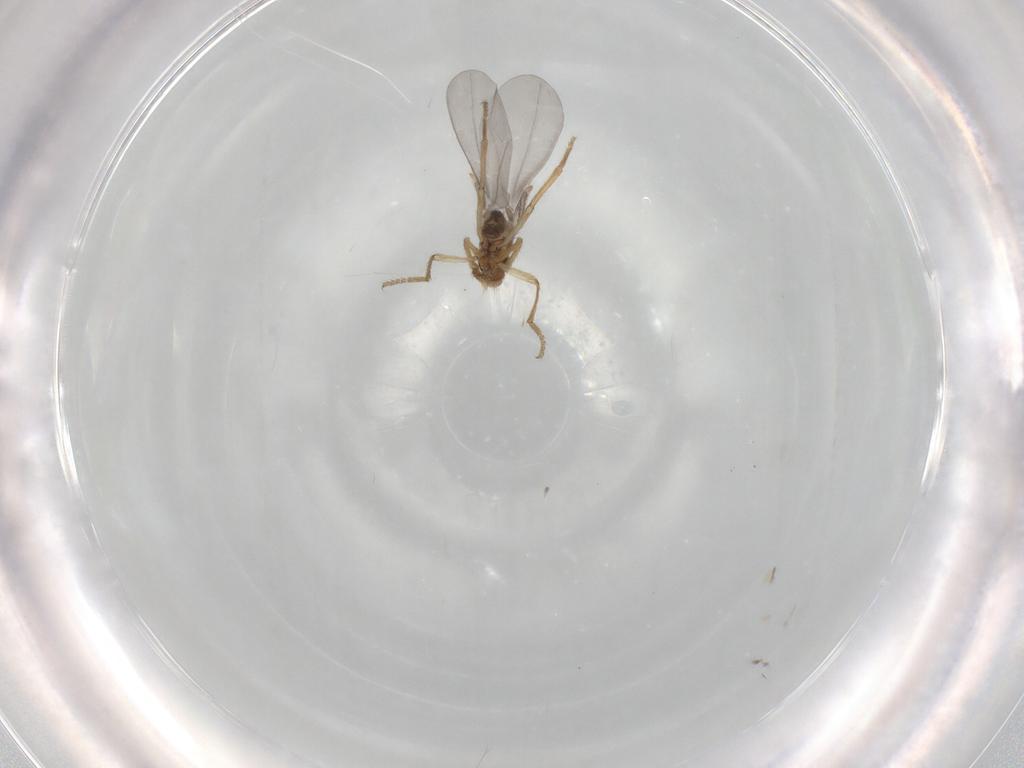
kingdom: Animalia
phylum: Arthropoda
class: Insecta
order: Diptera
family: Phoridae
